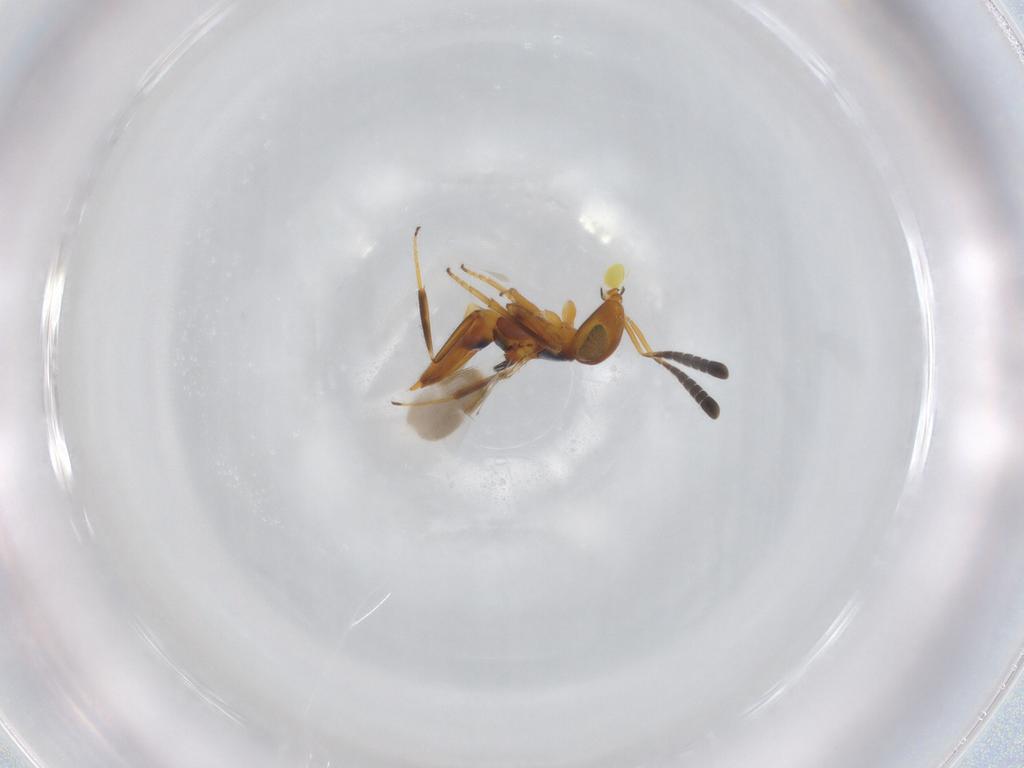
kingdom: Animalia
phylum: Arthropoda
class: Insecta
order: Hymenoptera
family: Encyrtidae
